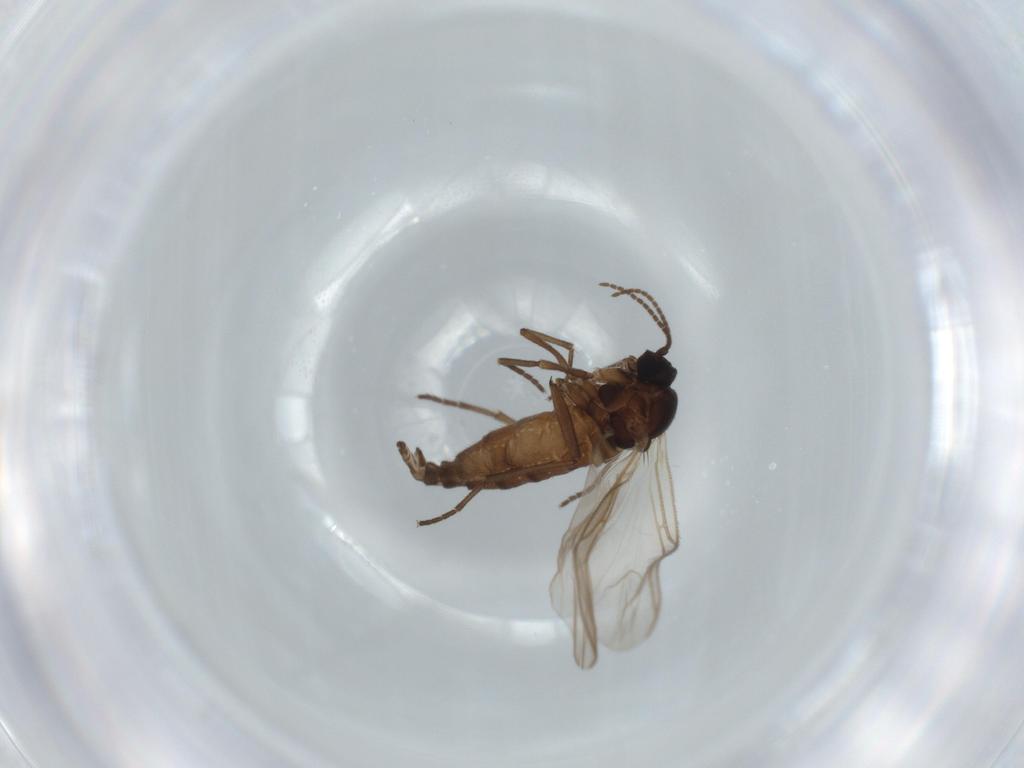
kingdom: Animalia
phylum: Arthropoda
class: Insecta
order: Diptera
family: Sciaridae
